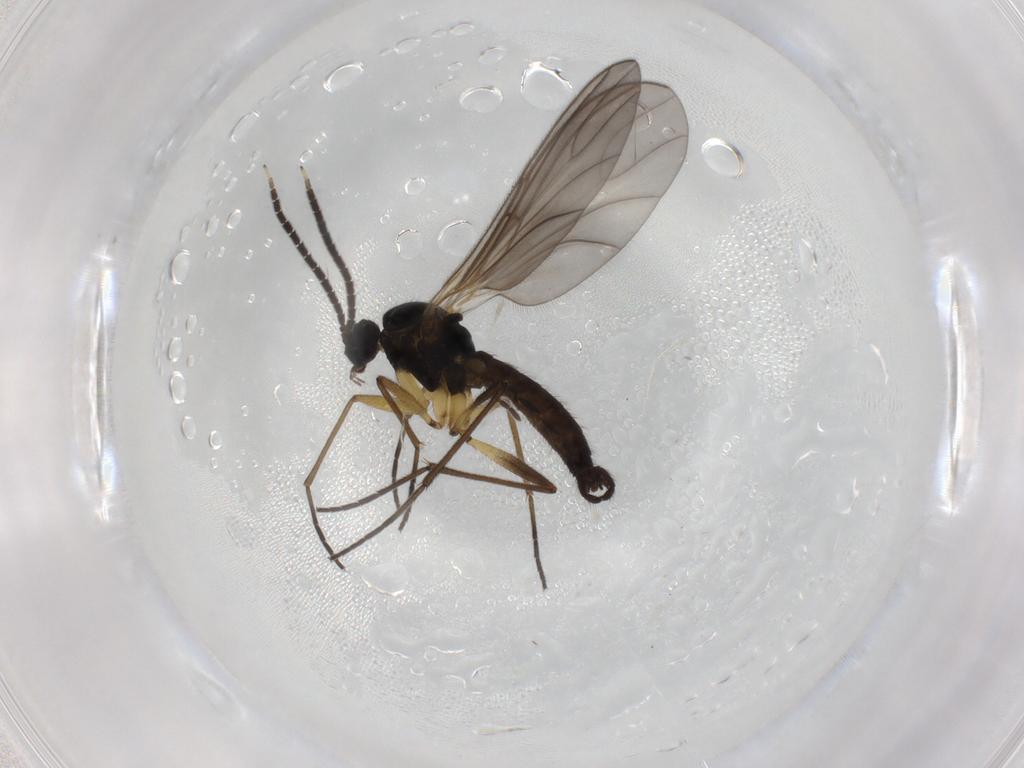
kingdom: Animalia
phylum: Arthropoda
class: Insecta
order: Diptera
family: Sciaridae
